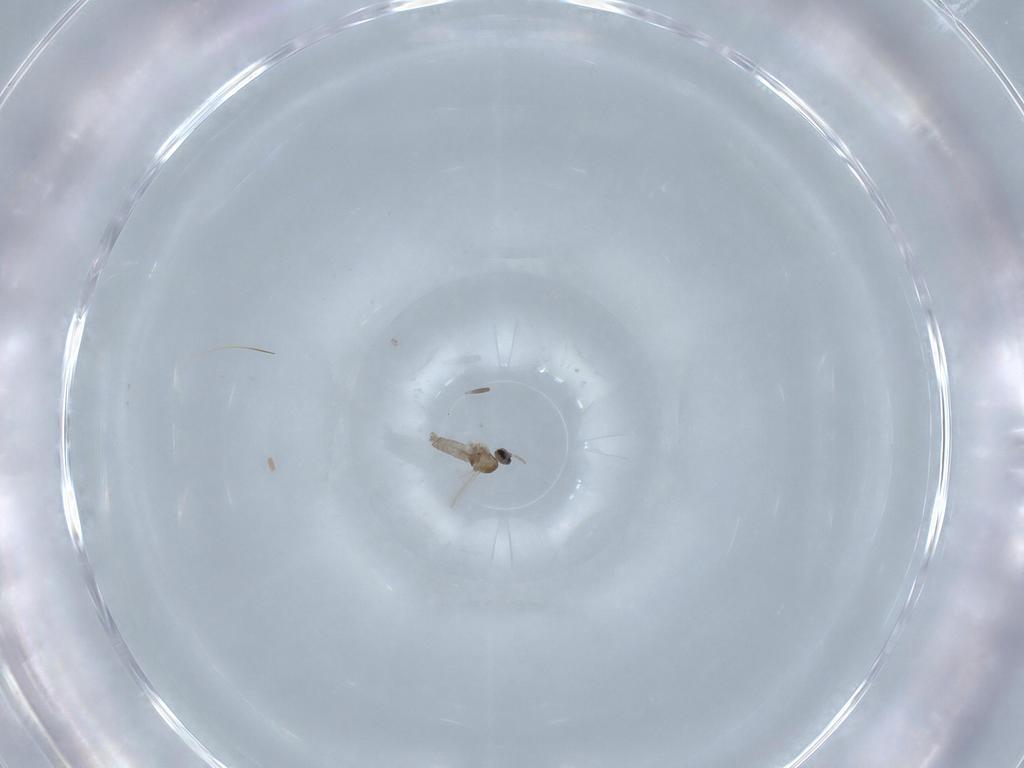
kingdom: Animalia
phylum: Arthropoda
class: Insecta
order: Diptera
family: Cecidomyiidae
